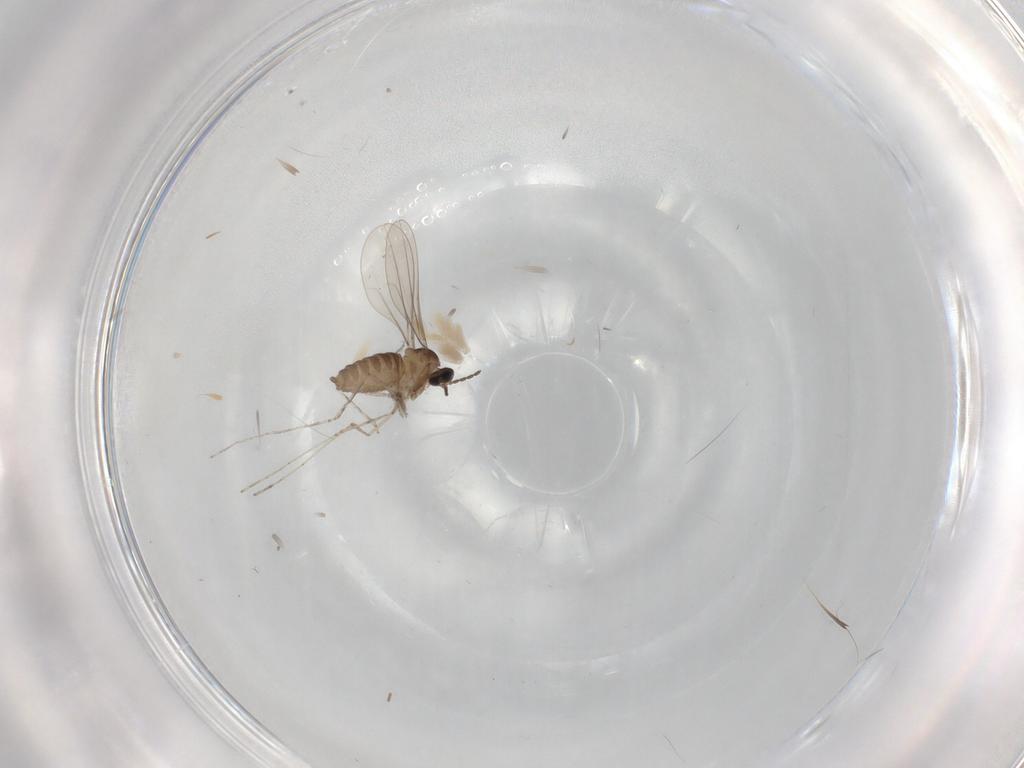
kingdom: Animalia
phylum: Arthropoda
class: Insecta
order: Diptera
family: Cecidomyiidae
